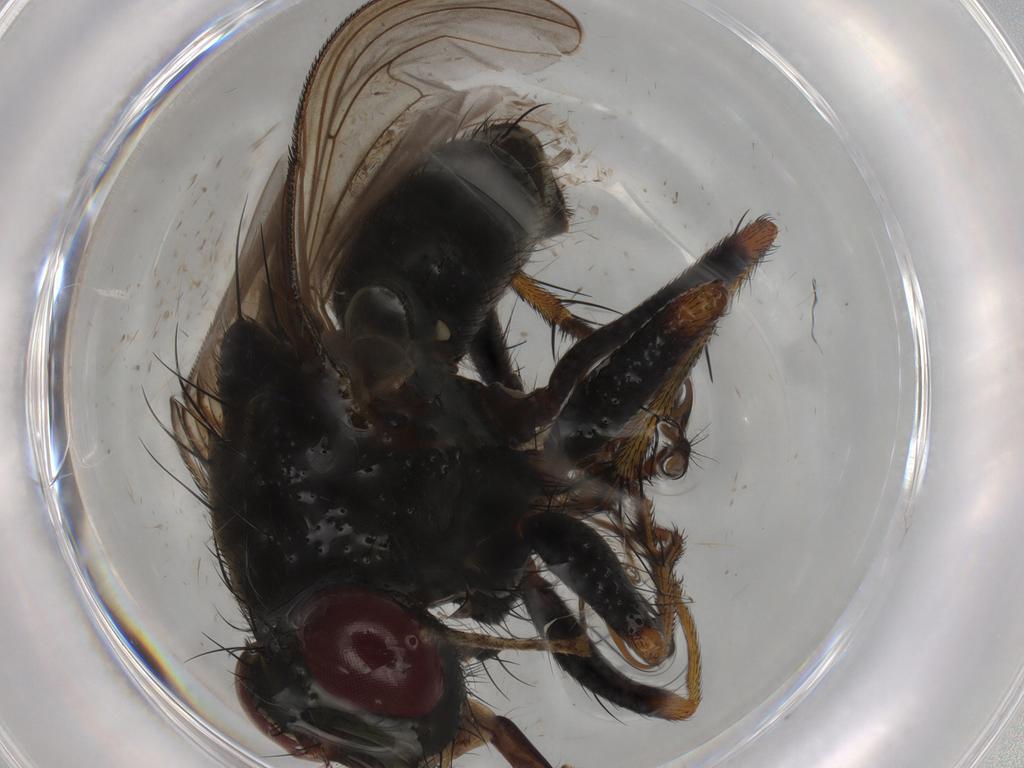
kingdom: Animalia
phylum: Arthropoda
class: Insecta
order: Diptera
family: Muscidae
